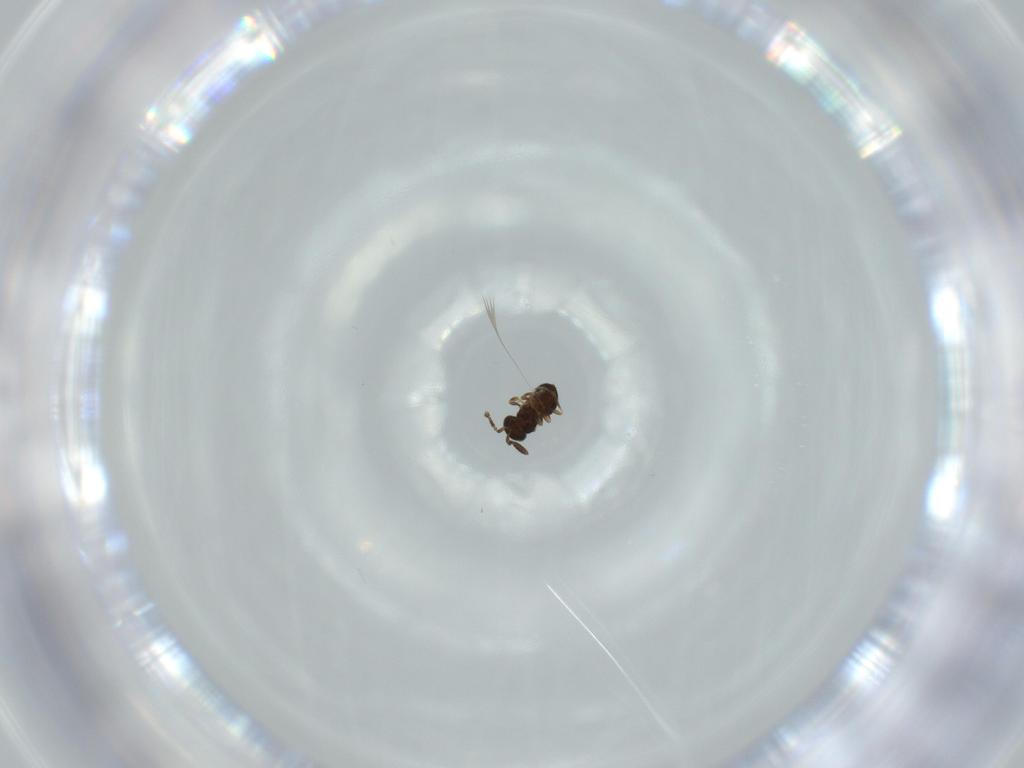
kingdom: Animalia
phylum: Arthropoda
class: Insecta
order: Hymenoptera
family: Scelionidae
